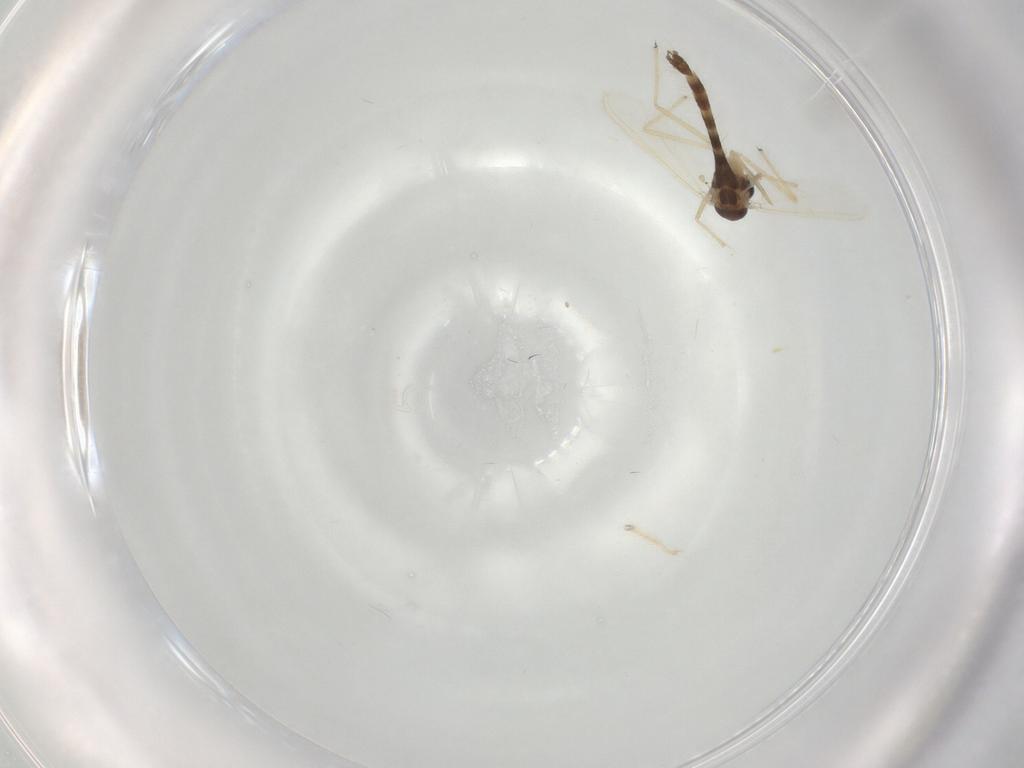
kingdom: Animalia
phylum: Arthropoda
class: Insecta
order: Diptera
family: Chironomidae
